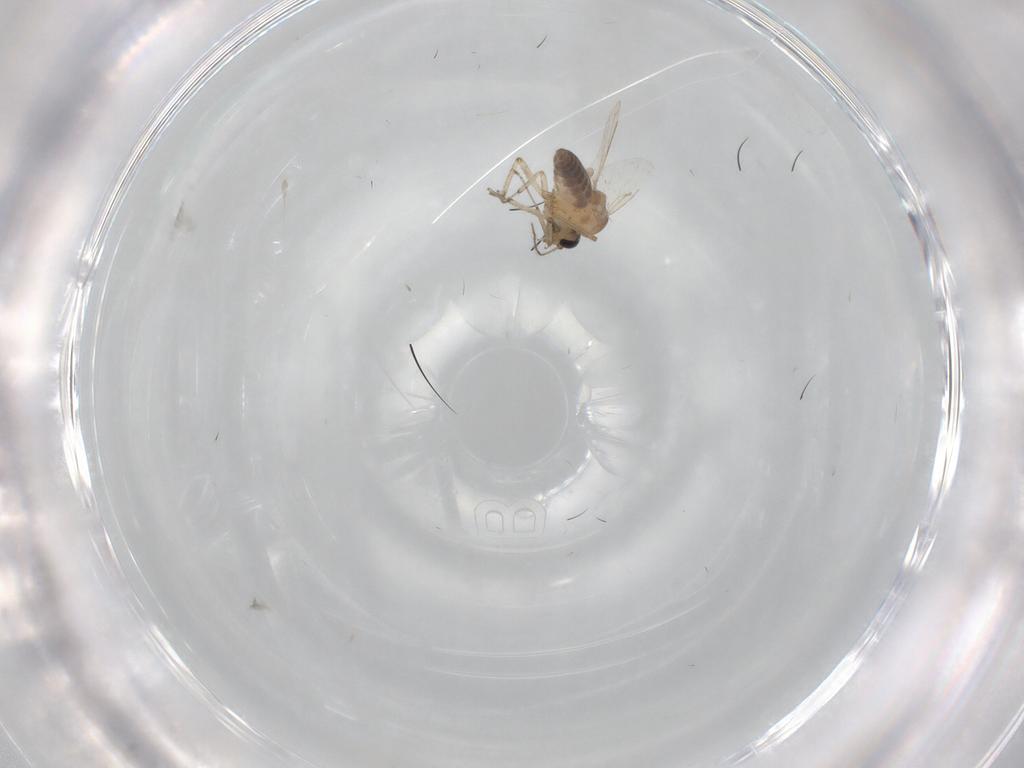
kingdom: Animalia
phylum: Arthropoda
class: Insecta
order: Diptera
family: Ceratopogonidae
